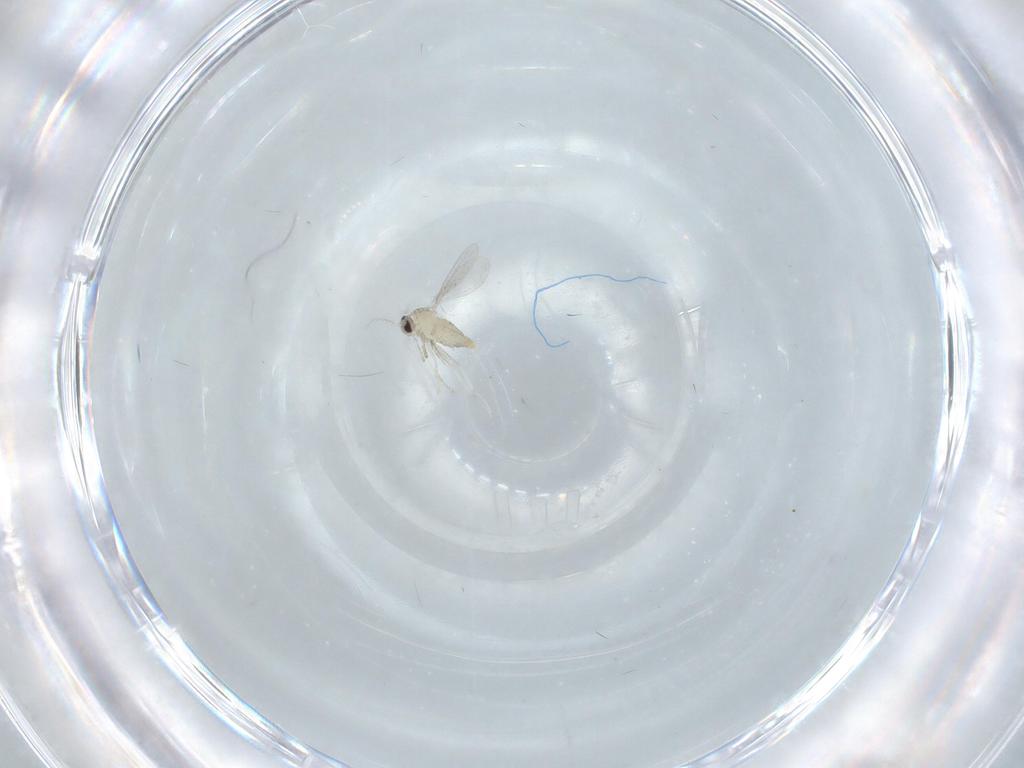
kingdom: Animalia
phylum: Arthropoda
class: Insecta
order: Diptera
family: Cecidomyiidae
